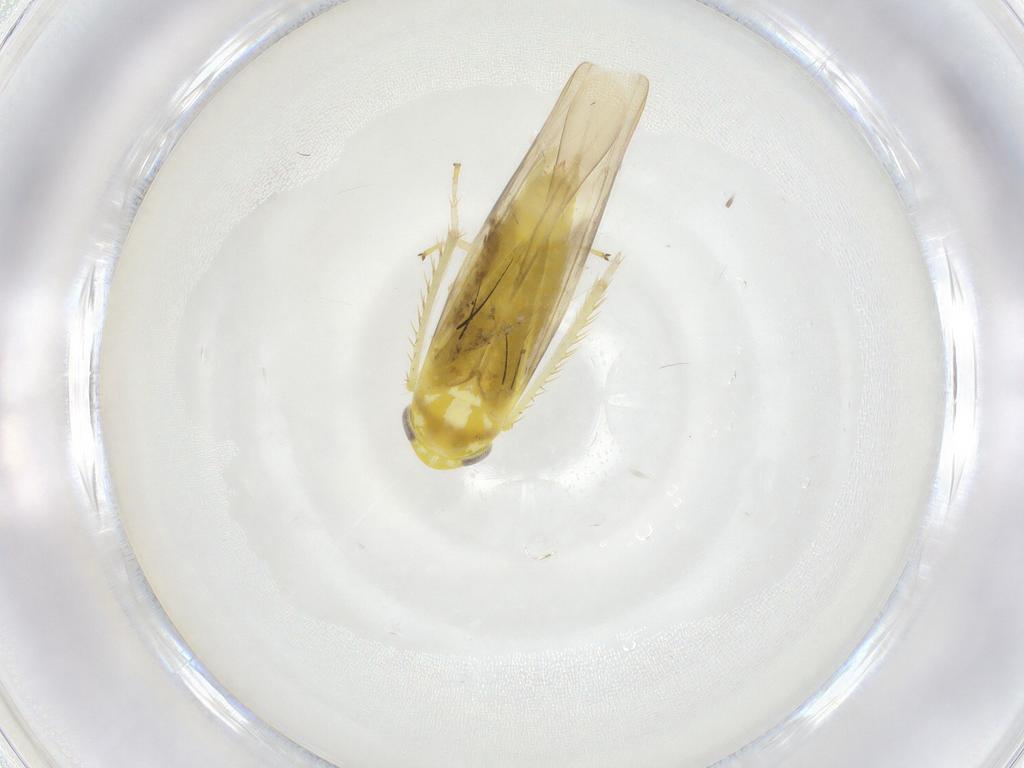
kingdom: Animalia
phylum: Arthropoda
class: Insecta
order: Hemiptera
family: Cicadellidae
